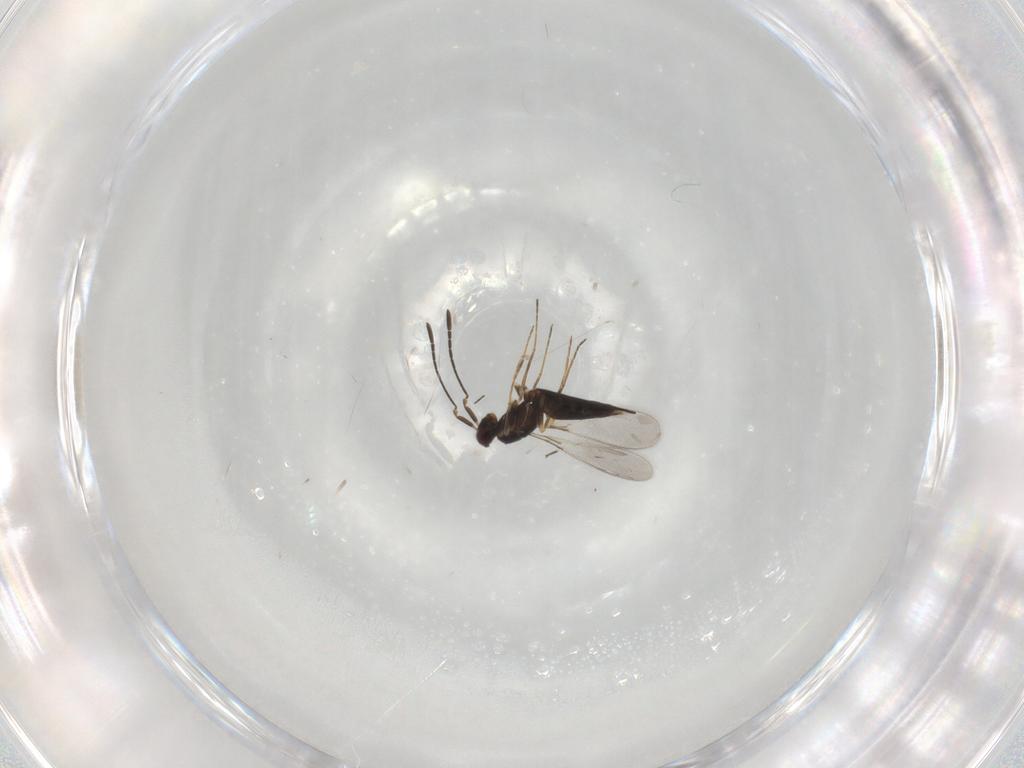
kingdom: Animalia
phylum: Arthropoda
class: Insecta
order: Hymenoptera
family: Mymaridae
